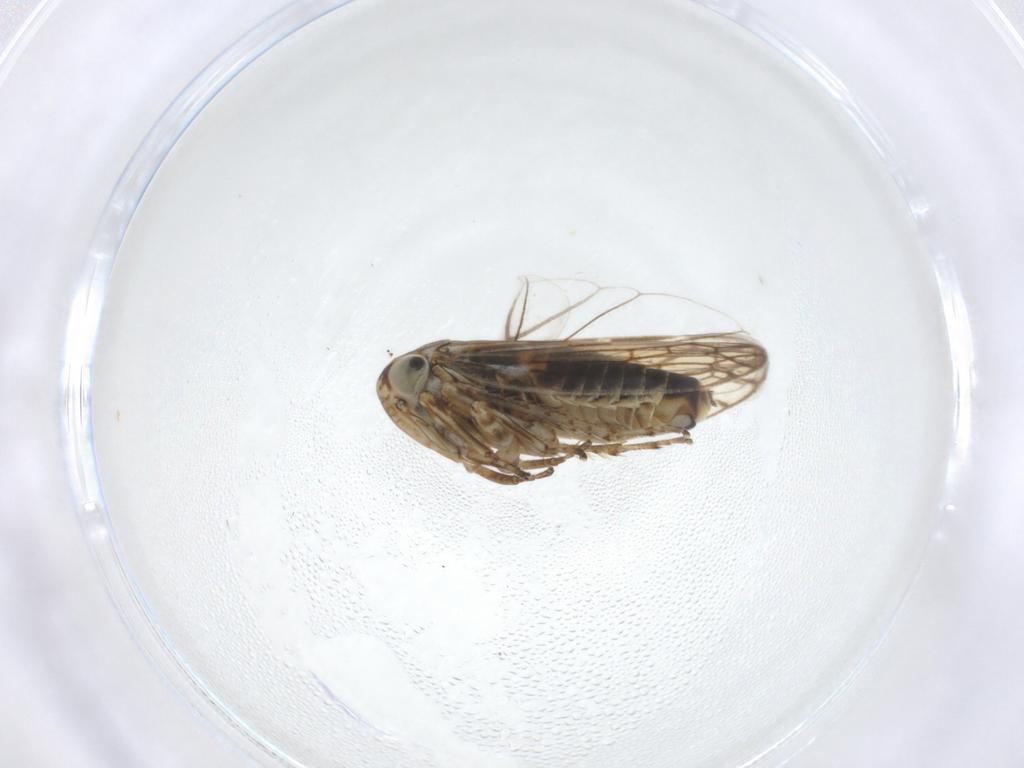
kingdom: Animalia
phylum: Arthropoda
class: Insecta
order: Hemiptera
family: Cicadellidae
